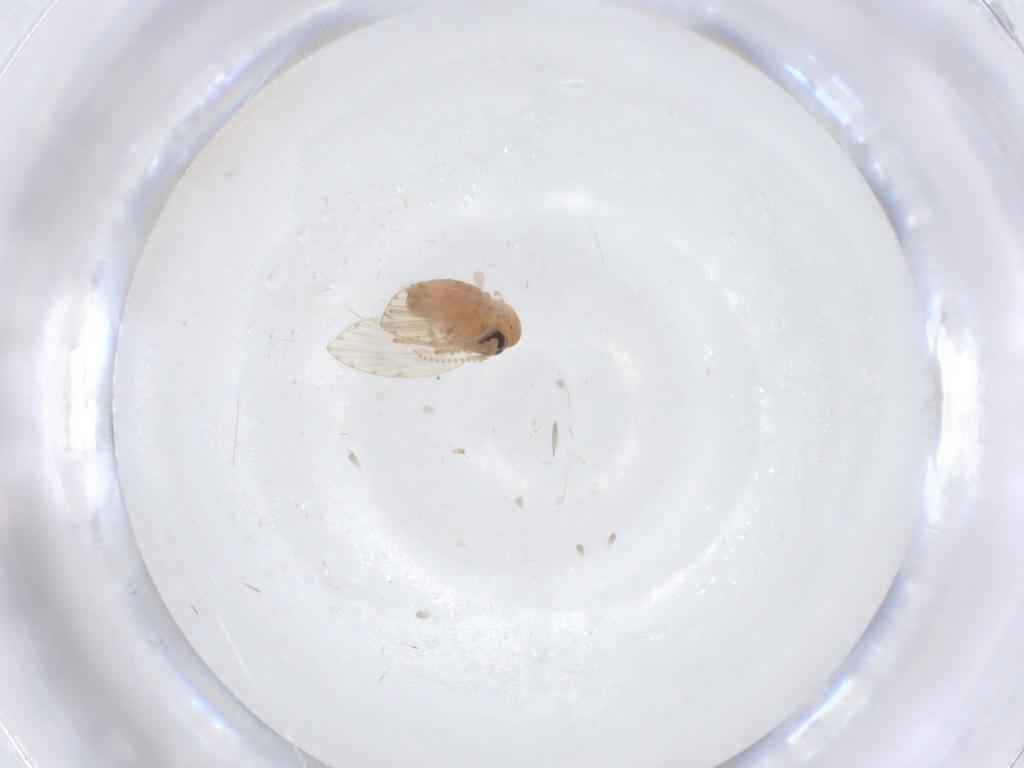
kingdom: Animalia
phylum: Arthropoda
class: Insecta
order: Diptera
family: Psychodidae
